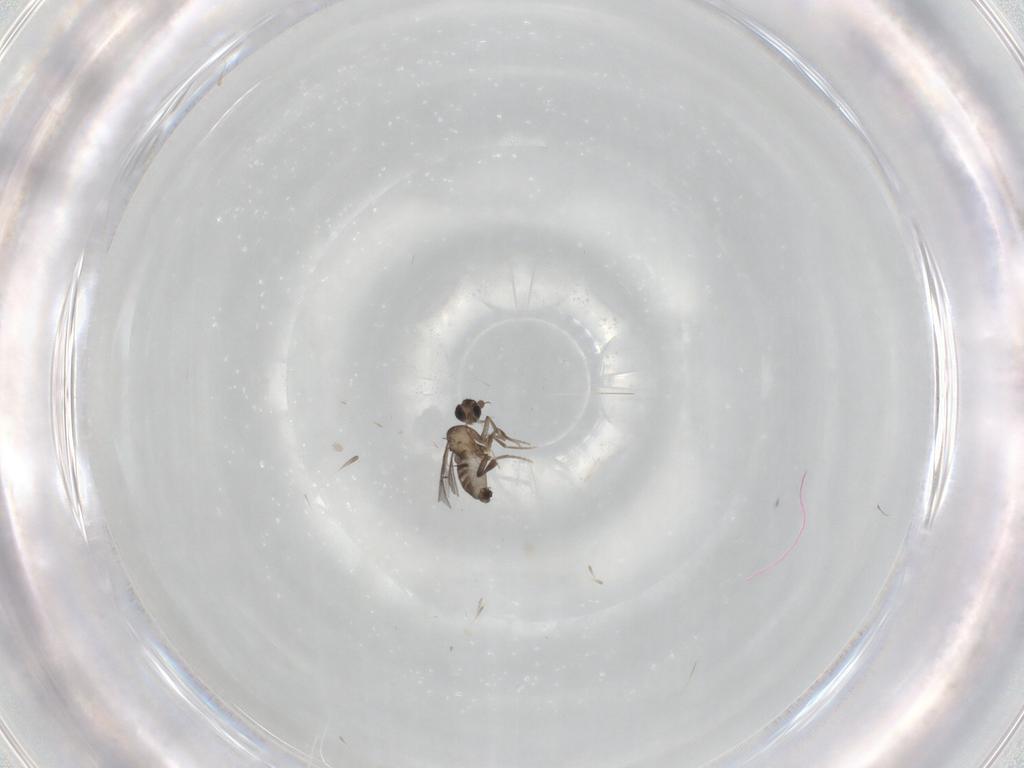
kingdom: Animalia
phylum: Arthropoda
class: Insecta
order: Diptera
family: Phoridae
